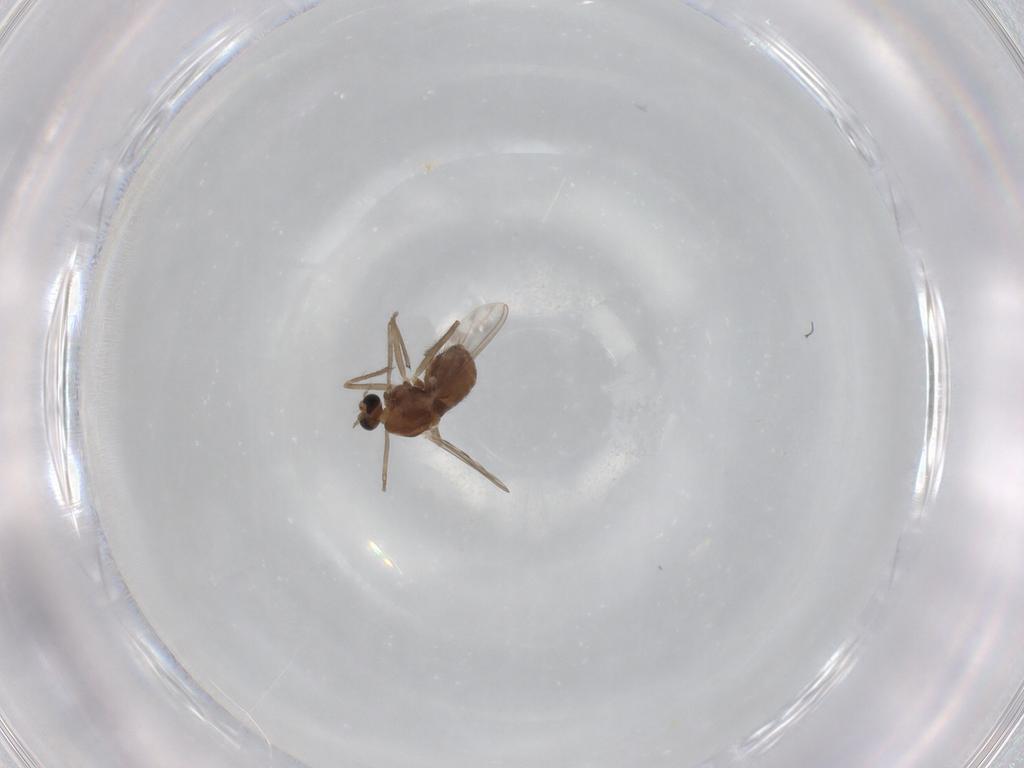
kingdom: Animalia
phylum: Arthropoda
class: Insecta
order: Diptera
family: Chironomidae
